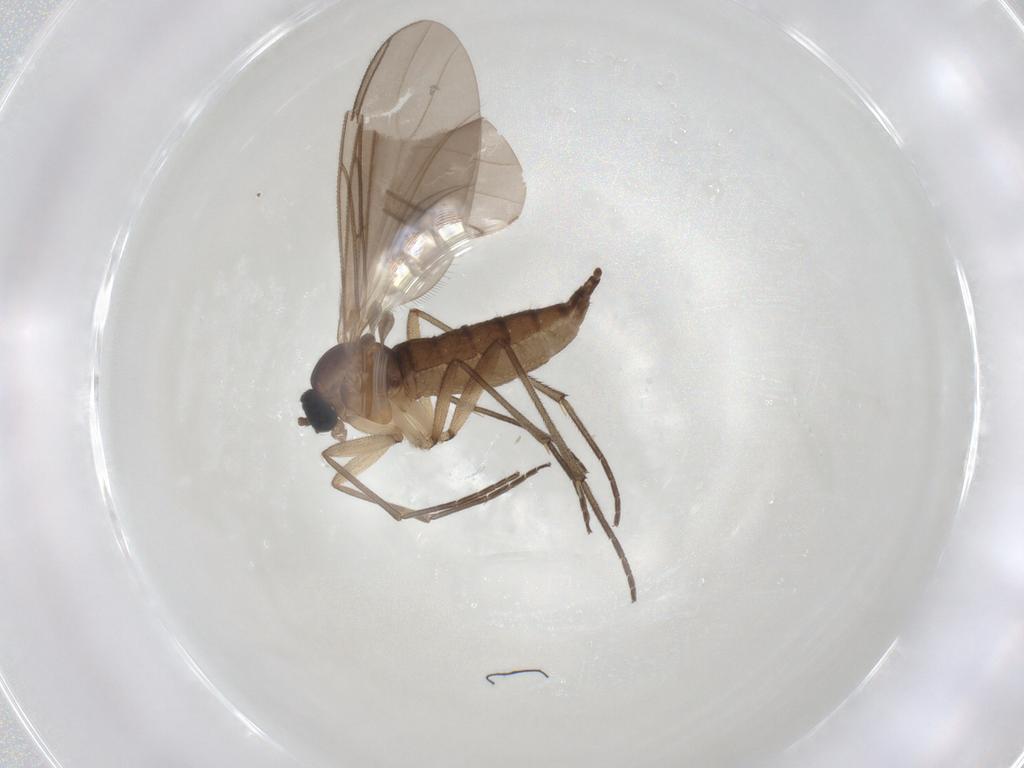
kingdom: Animalia
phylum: Arthropoda
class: Insecta
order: Diptera
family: Sciaridae
